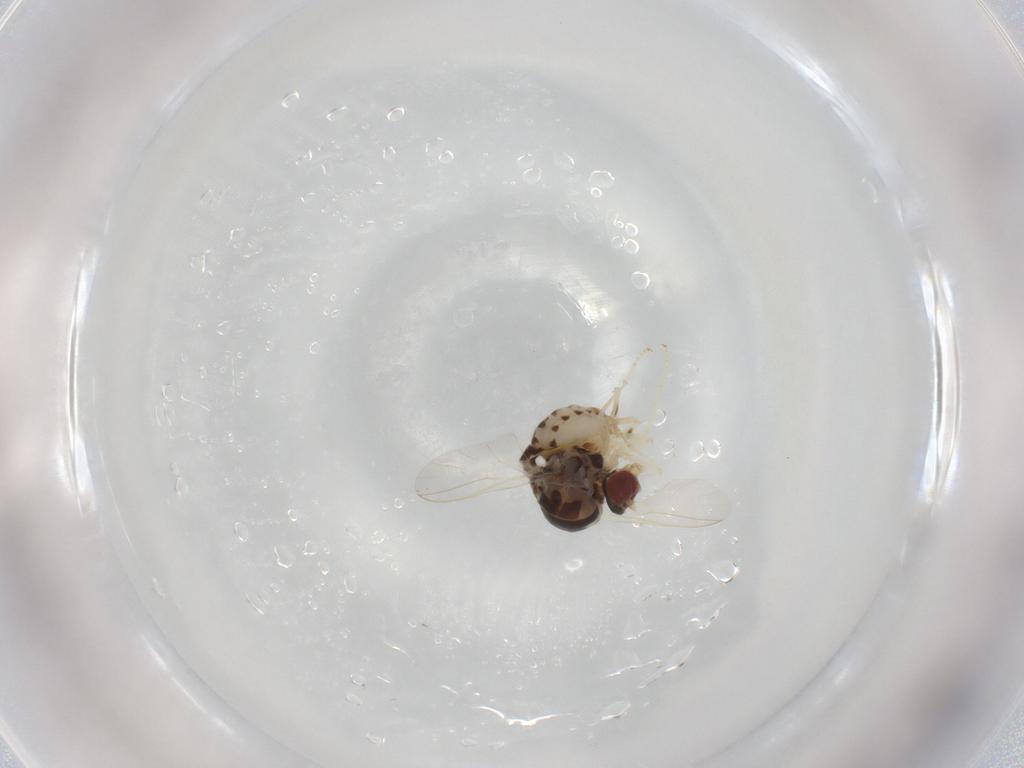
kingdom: Animalia
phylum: Arthropoda
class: Insecta
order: Diptera
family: Bombyliidae
